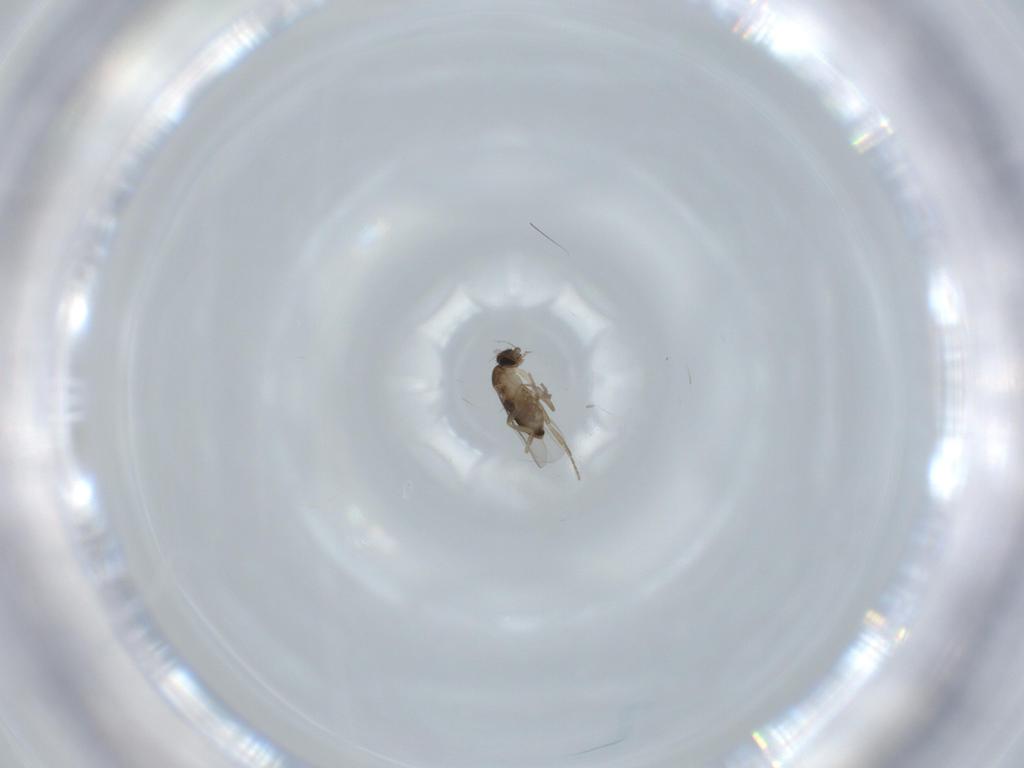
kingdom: Animalia
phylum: Arthropoda
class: Insecta
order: Diptera
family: Phoridae
